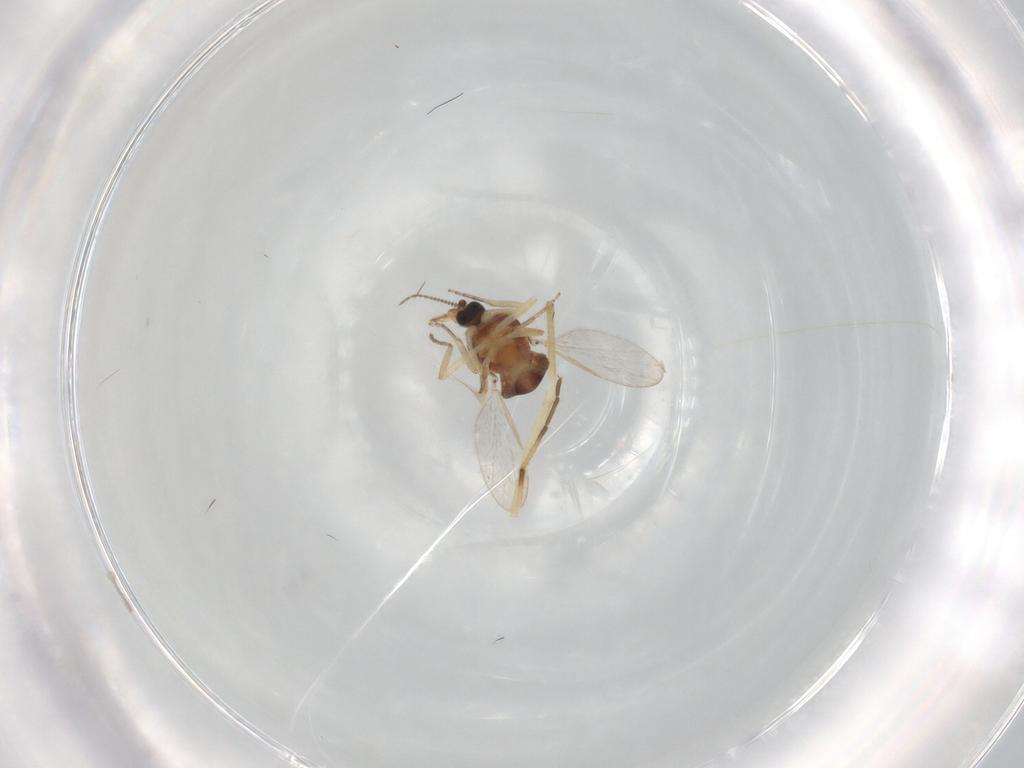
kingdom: Animalia
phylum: Arthropoda
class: Insecta
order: Diptera
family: Ceratopogonidae
